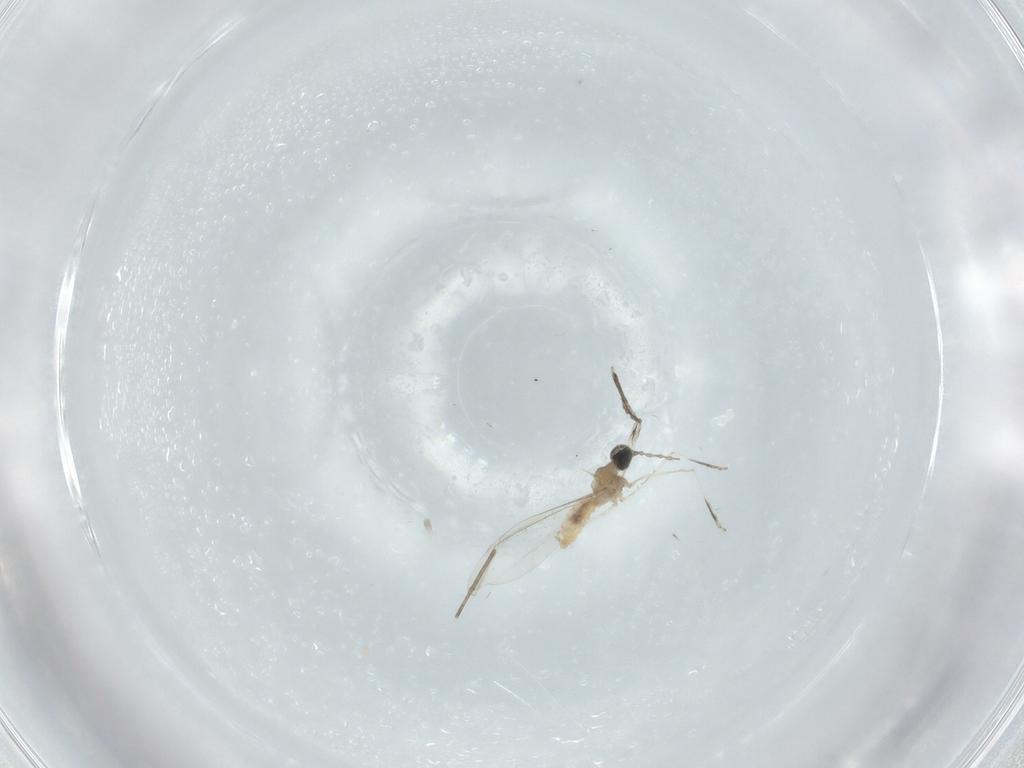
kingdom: Animalia
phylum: Arthropoda
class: Insecta
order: Diptera
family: Cecidomyiidae
